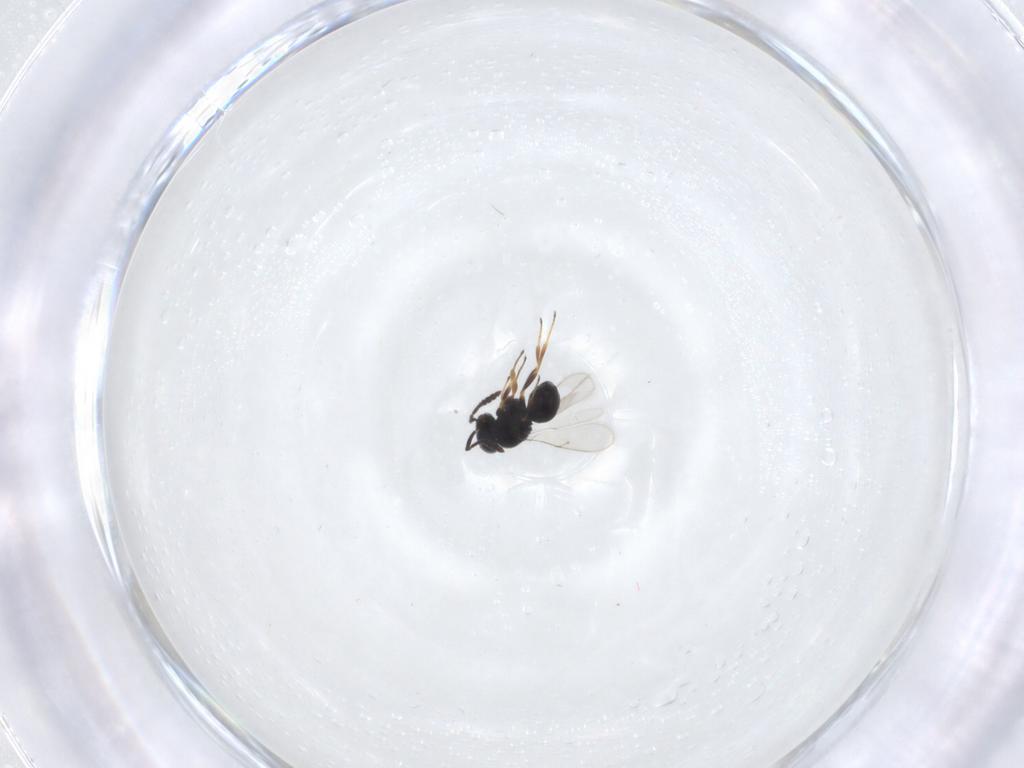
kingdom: Animalia
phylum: Arthropoda
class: Insecta
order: Hymenoptera
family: Scelionidae
